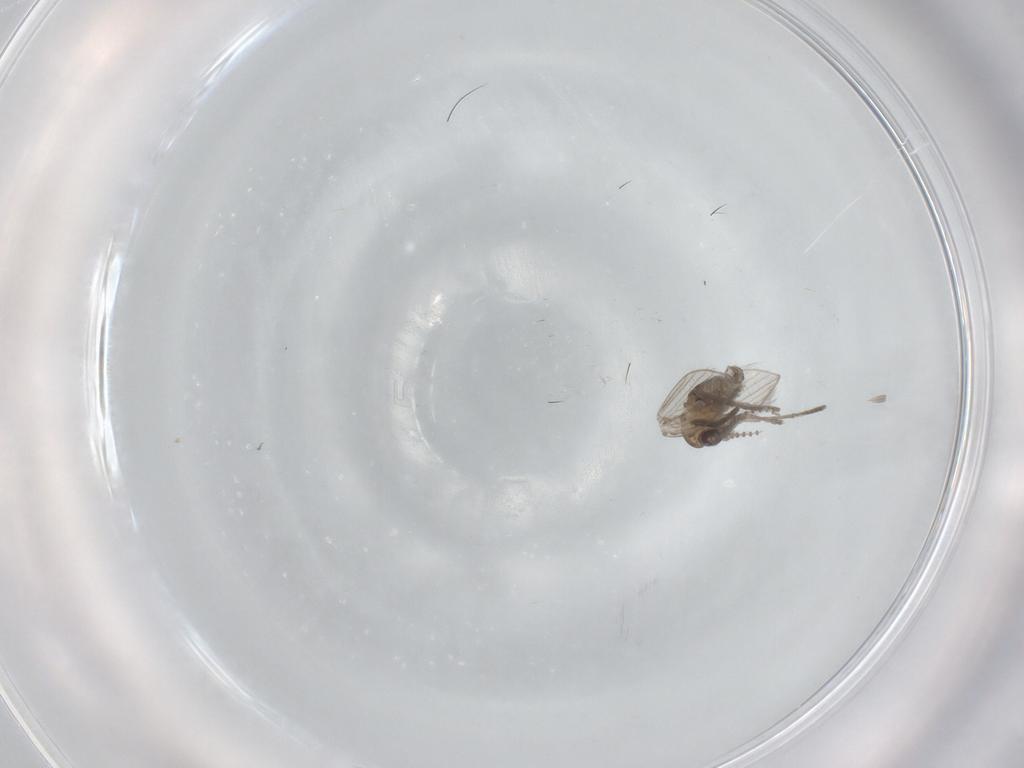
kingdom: Animalia
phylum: Arthropoda
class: Insecta
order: Diptera
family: Psychodidae
